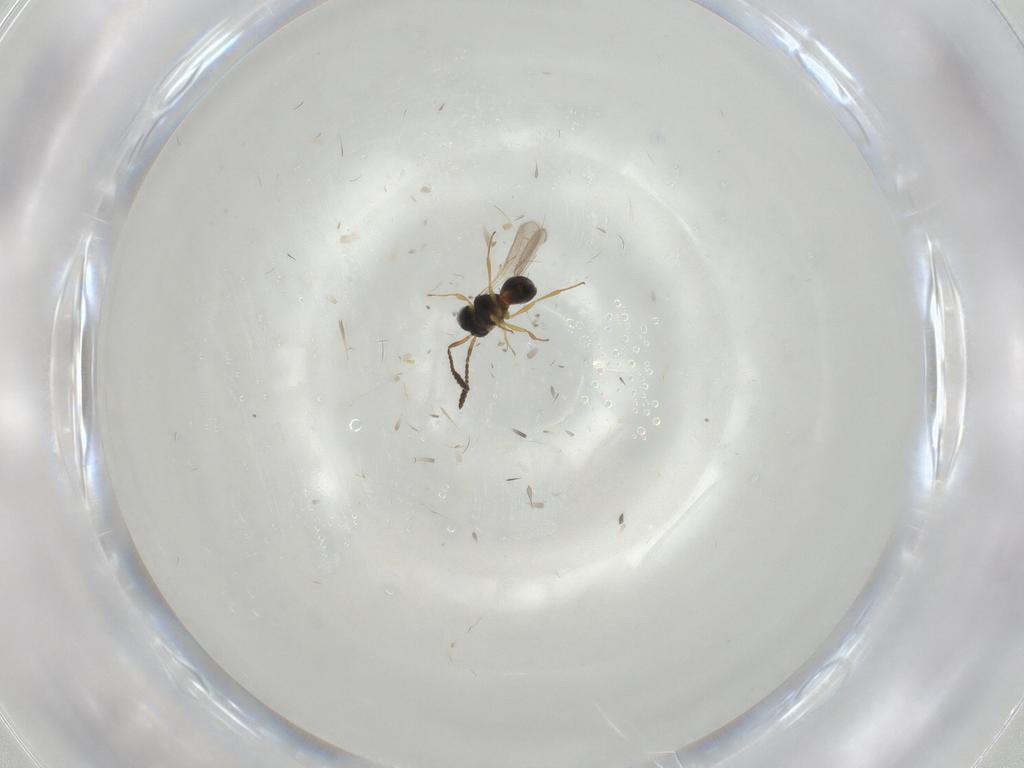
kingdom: Animalia
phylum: Arthropoda
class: Insecta
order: Hymenoptera
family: Scelionidae
